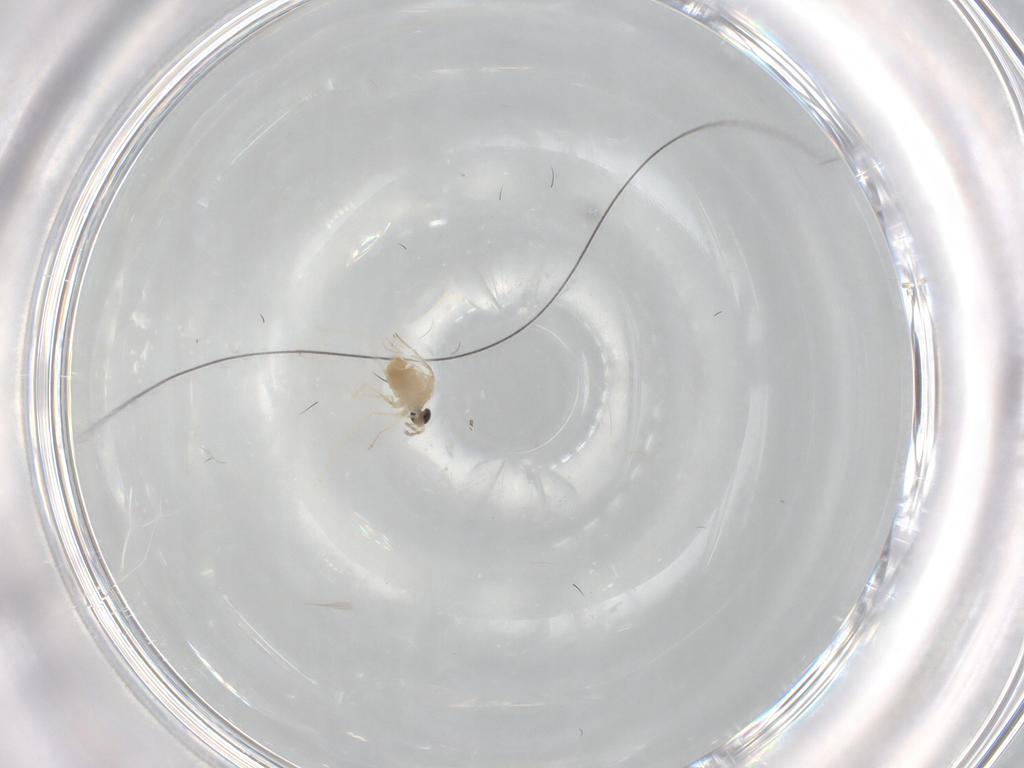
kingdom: Animalia
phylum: Arthropoda
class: Insecta
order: Diptera
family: Cecidomyiidae
